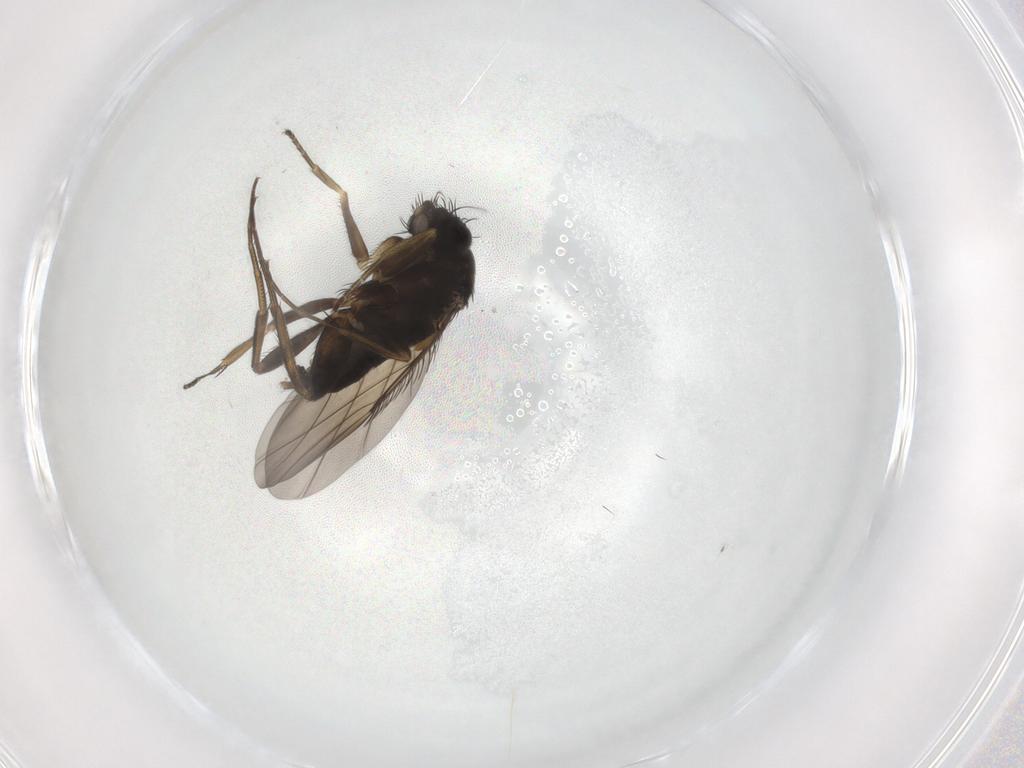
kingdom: Animalia
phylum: Arthropoda
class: Insecta
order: Diptera
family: Phoridae
